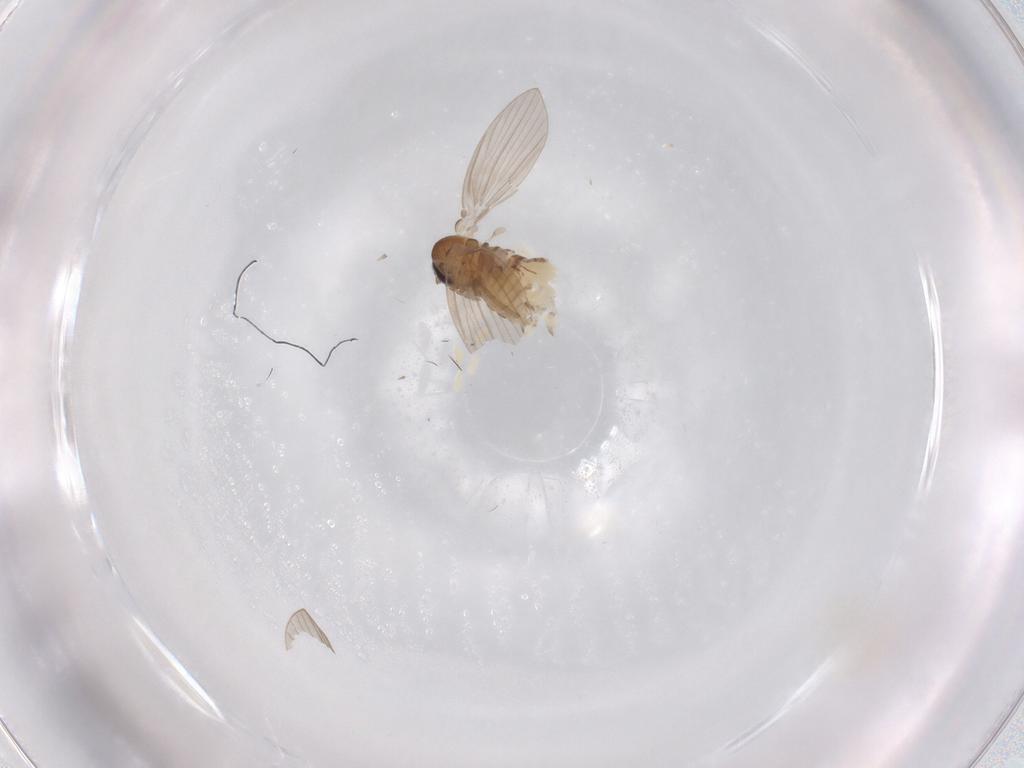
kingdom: Animalia
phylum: Arthropoda
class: Insecta
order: Diptera
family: Psychodidae
